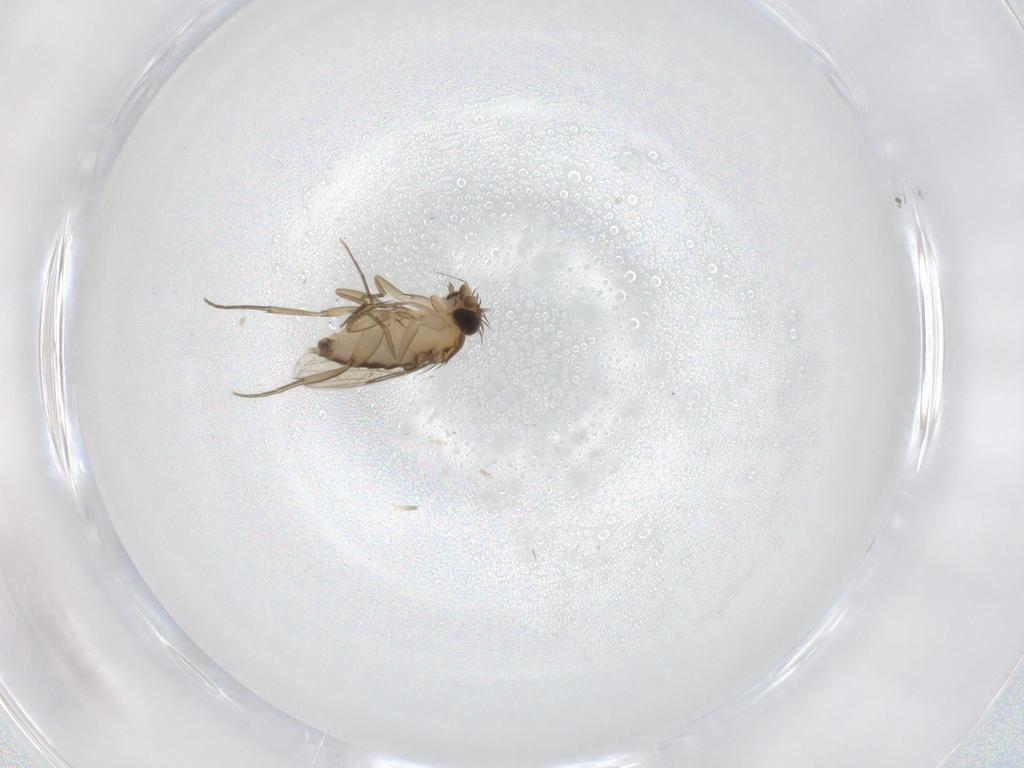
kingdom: Animalia
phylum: Arthropoda
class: Insecta
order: Diptera
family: Phoridae
